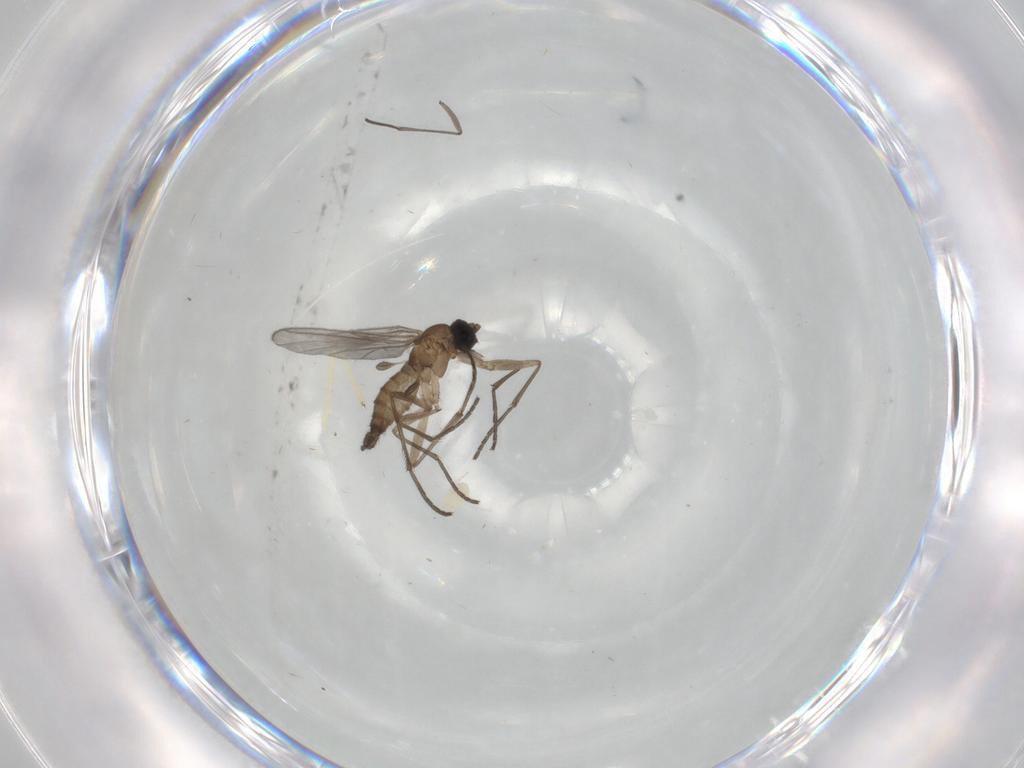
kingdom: Animalia
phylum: Arthropoda
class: Insecta
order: Diptera
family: Sciaridae
